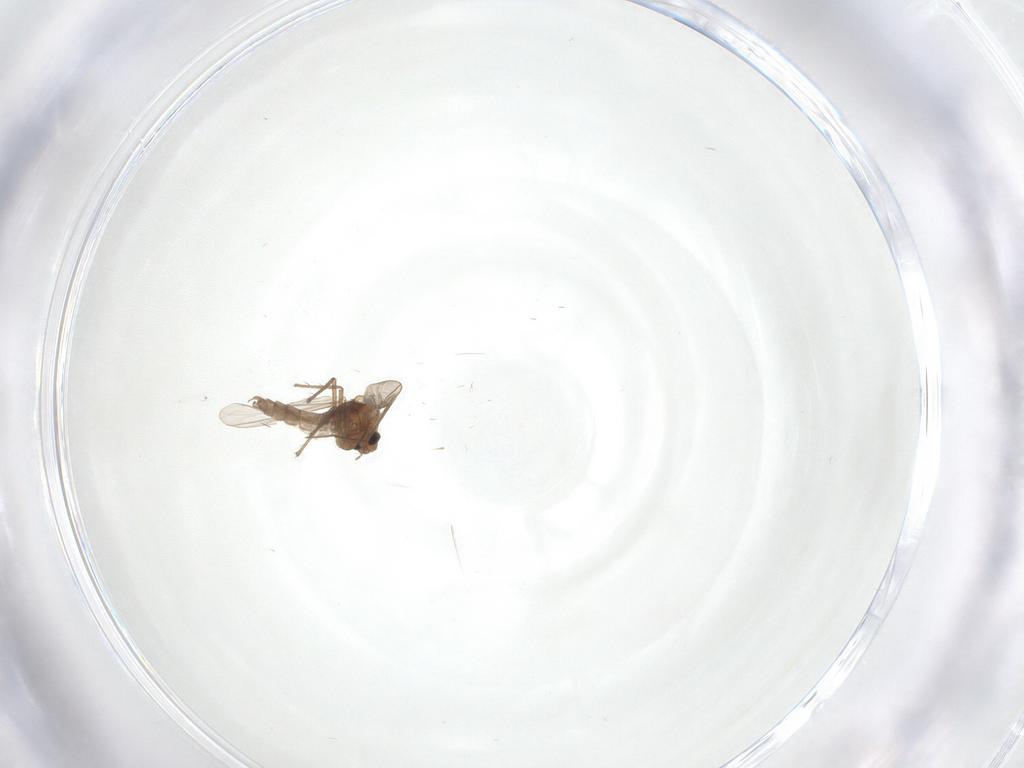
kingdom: Animalia
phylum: Arthropoda
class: Insecta
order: Diptera
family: Chironomidae
